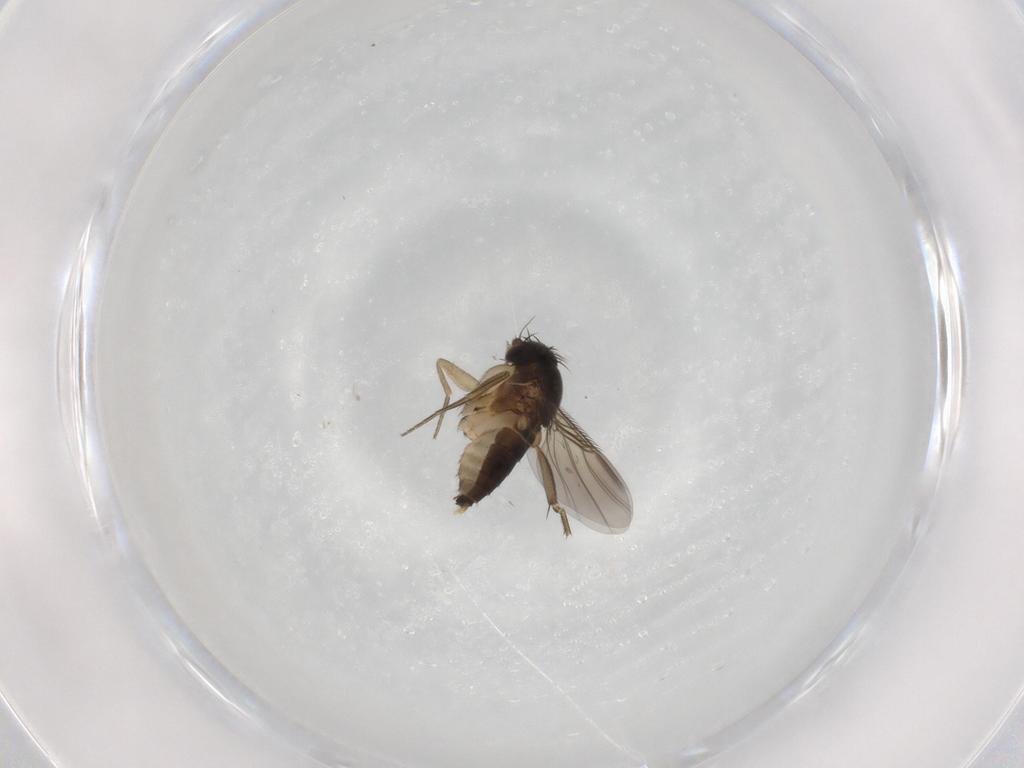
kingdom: Animalia
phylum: Arthropoda
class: Insecta
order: Diptera
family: Phoridae
